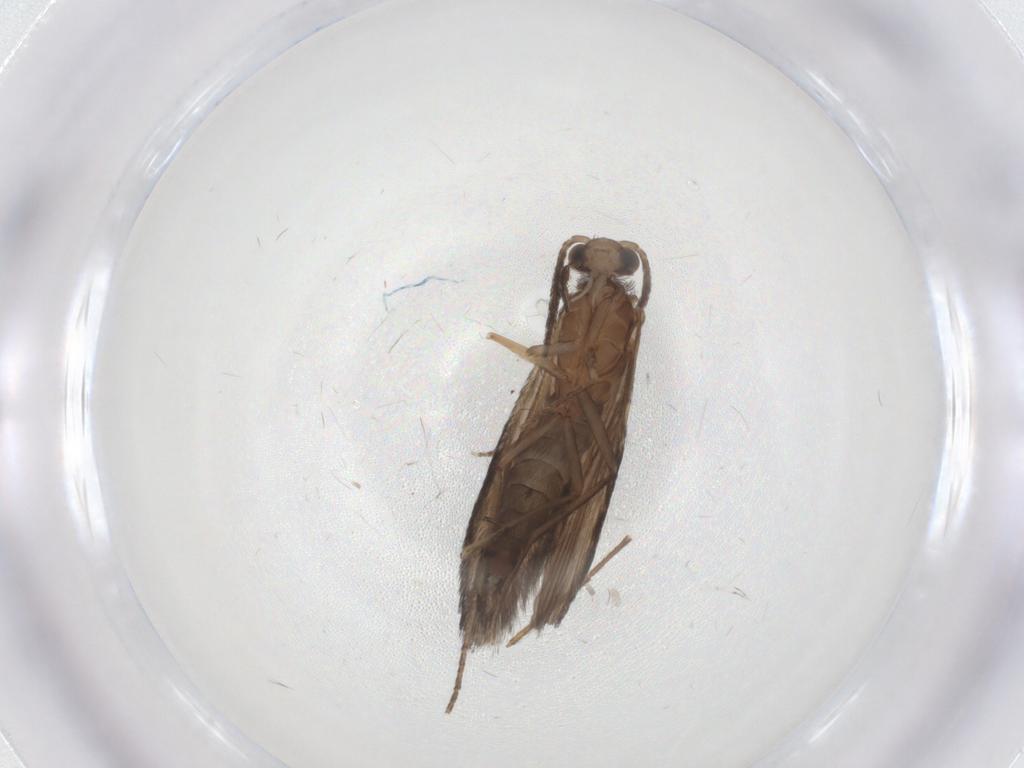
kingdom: Animalia
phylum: Arthropoda
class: Insecta
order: Trichoptera
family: Xiphocentronidae
